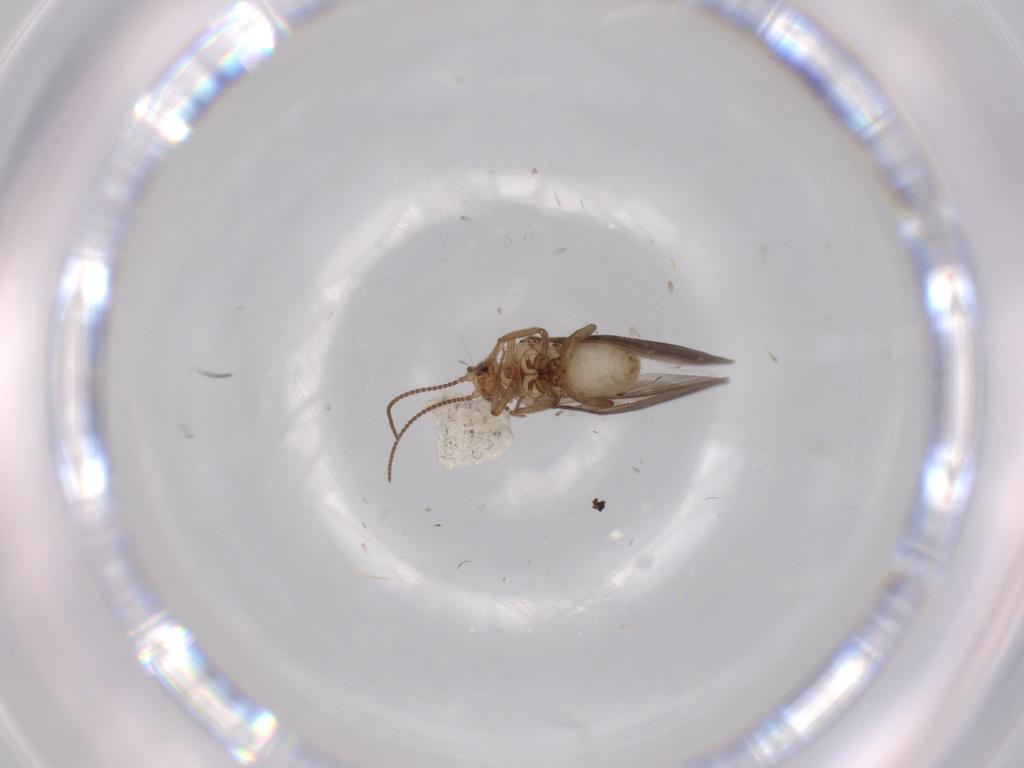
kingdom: Animalia
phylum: Arthropoda
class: Insecta
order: Neuroptera
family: Coniopterygidae
